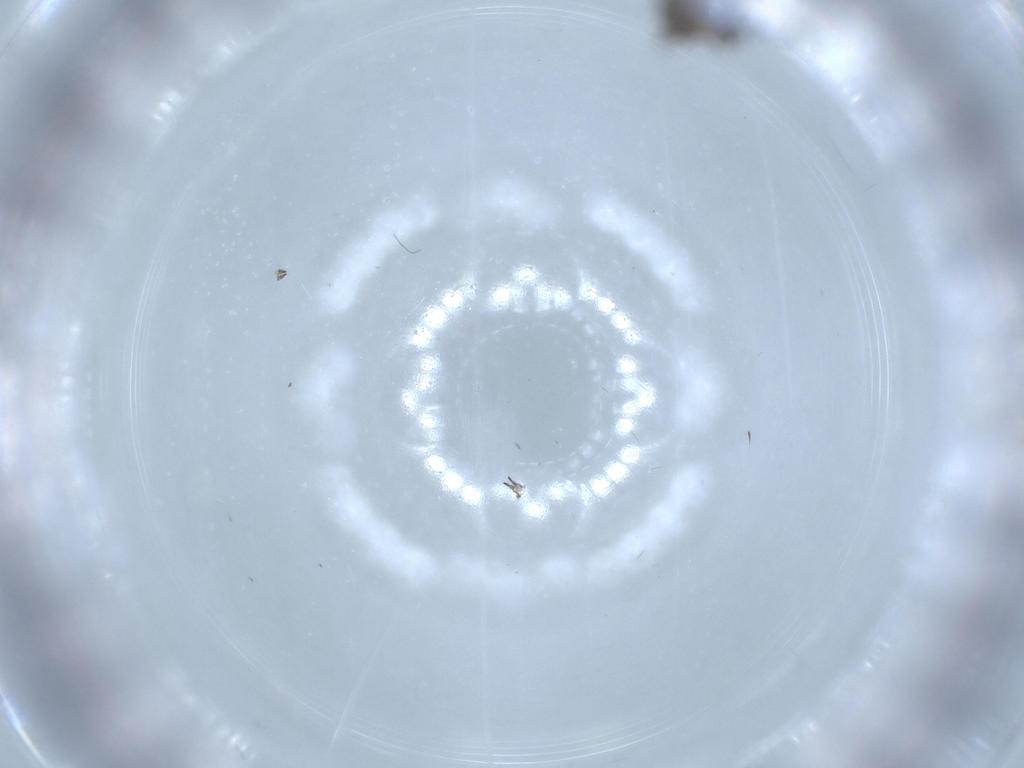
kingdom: Animalia
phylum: Arthropoda
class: Insecta
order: Diptera
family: Sciaridae
